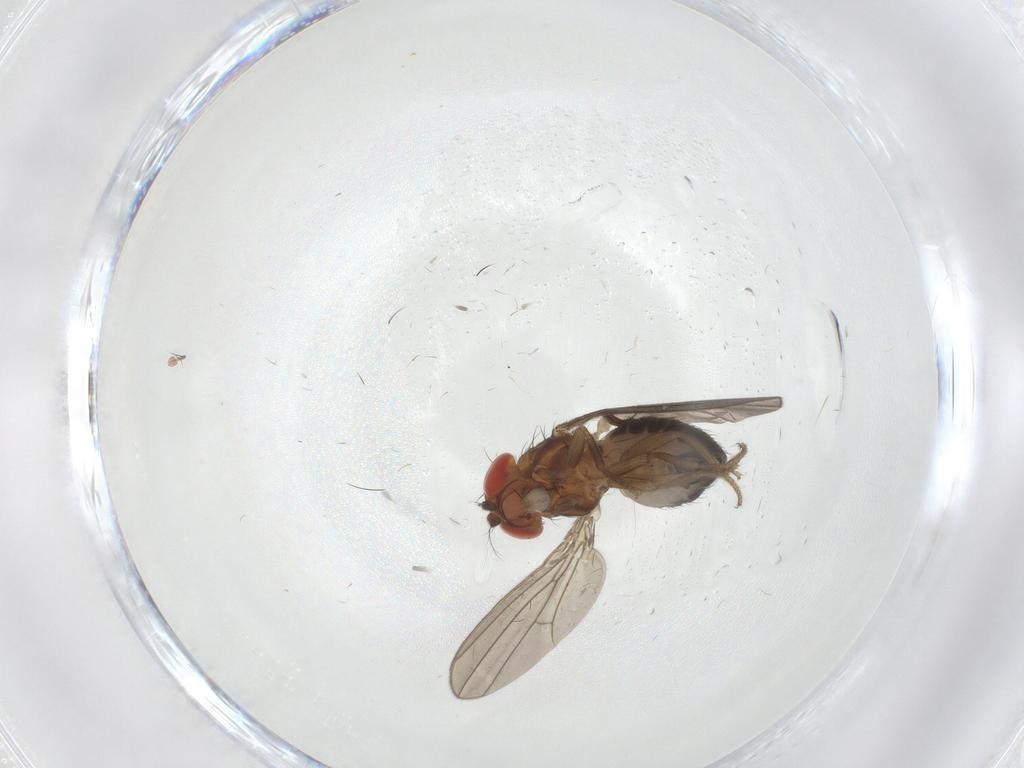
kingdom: Animalia
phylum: Arthropoda
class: Insecta
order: Diptera
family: Drosophilidae
